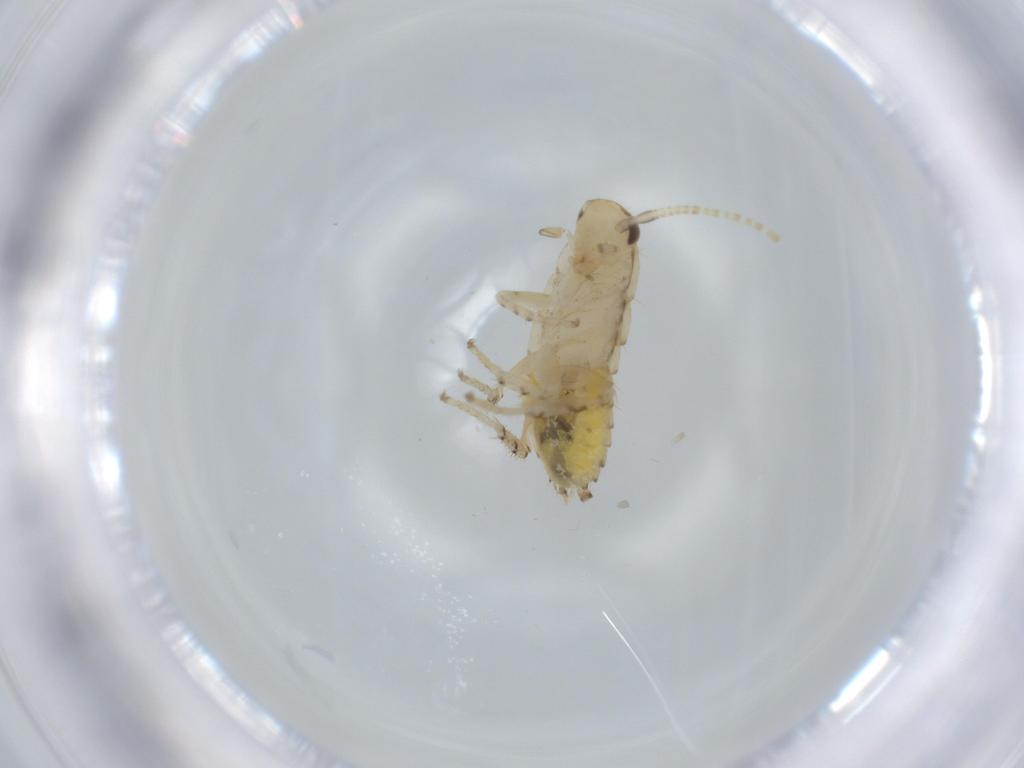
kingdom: Animalia
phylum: Arthropoda
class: Insecta
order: Blattodea
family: Ectobiidae
